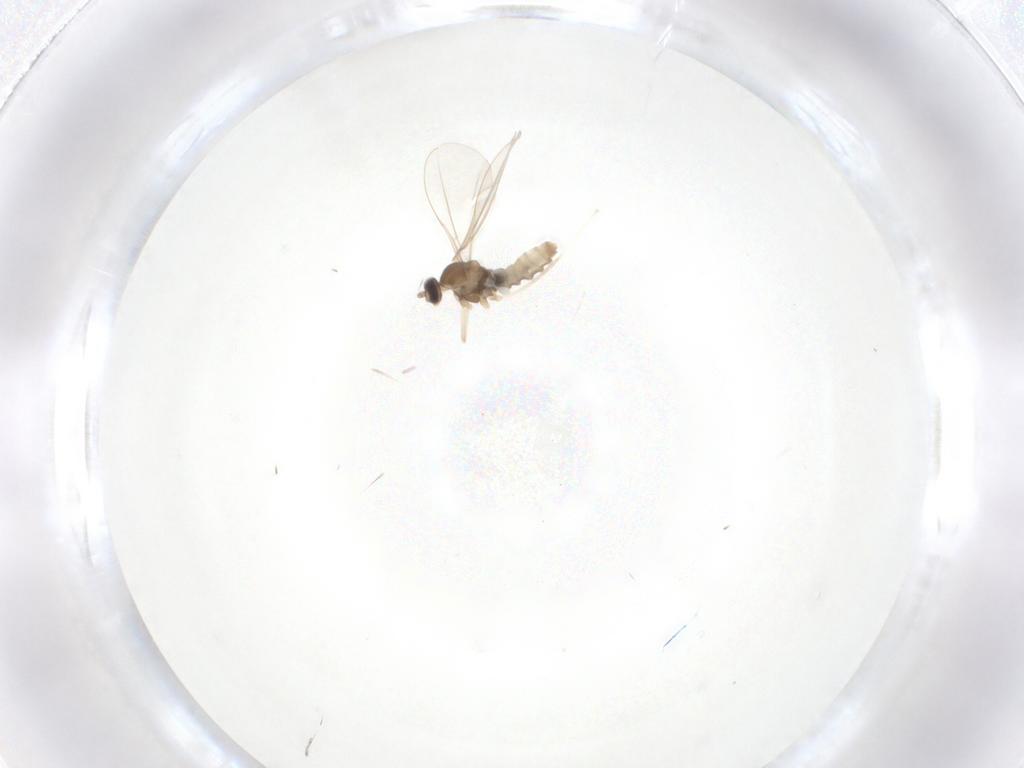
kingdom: Animalia
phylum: Arthropoda
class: Insecta
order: Diptera
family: Cecidomyiidae
